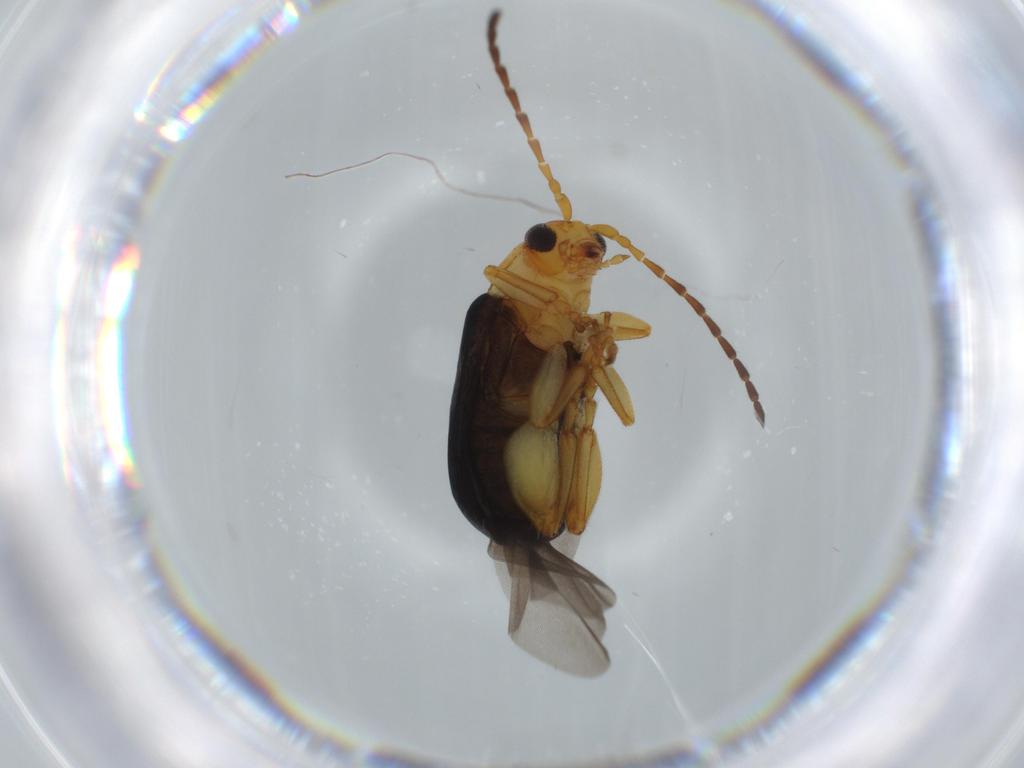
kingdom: Animalia
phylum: Arthropoda
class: Insecta
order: Coleoptera
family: Chrysomelidae
